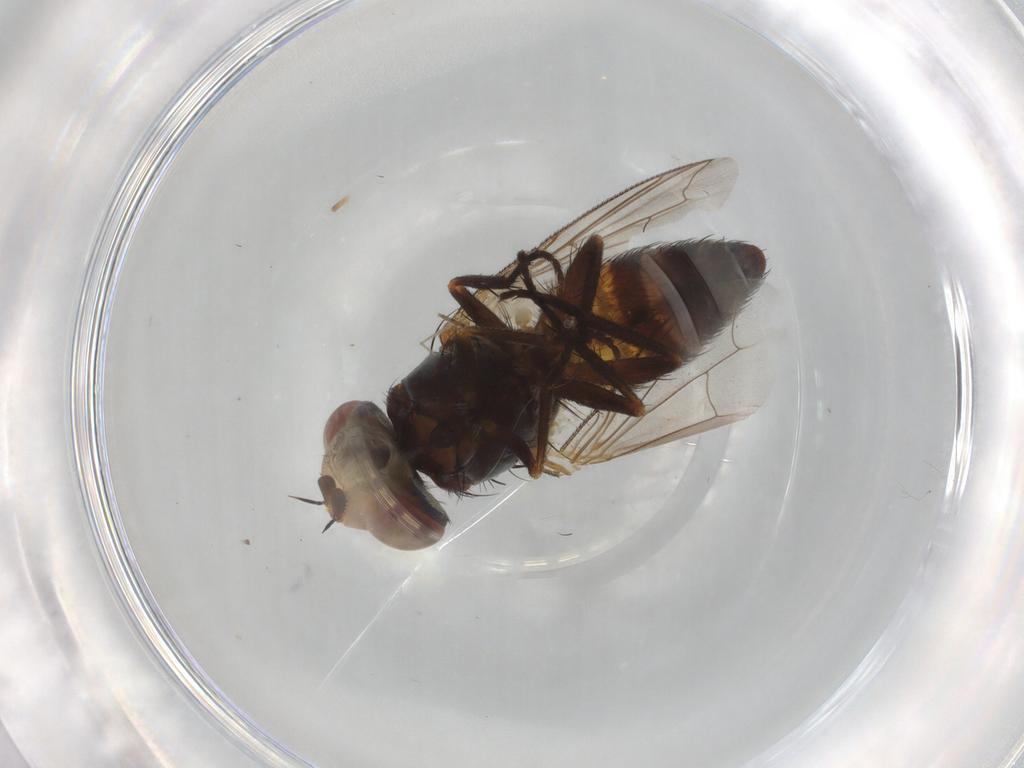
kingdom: Animalia
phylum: Arthropoda
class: Insecta
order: Diptera
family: Sarcophagidae
